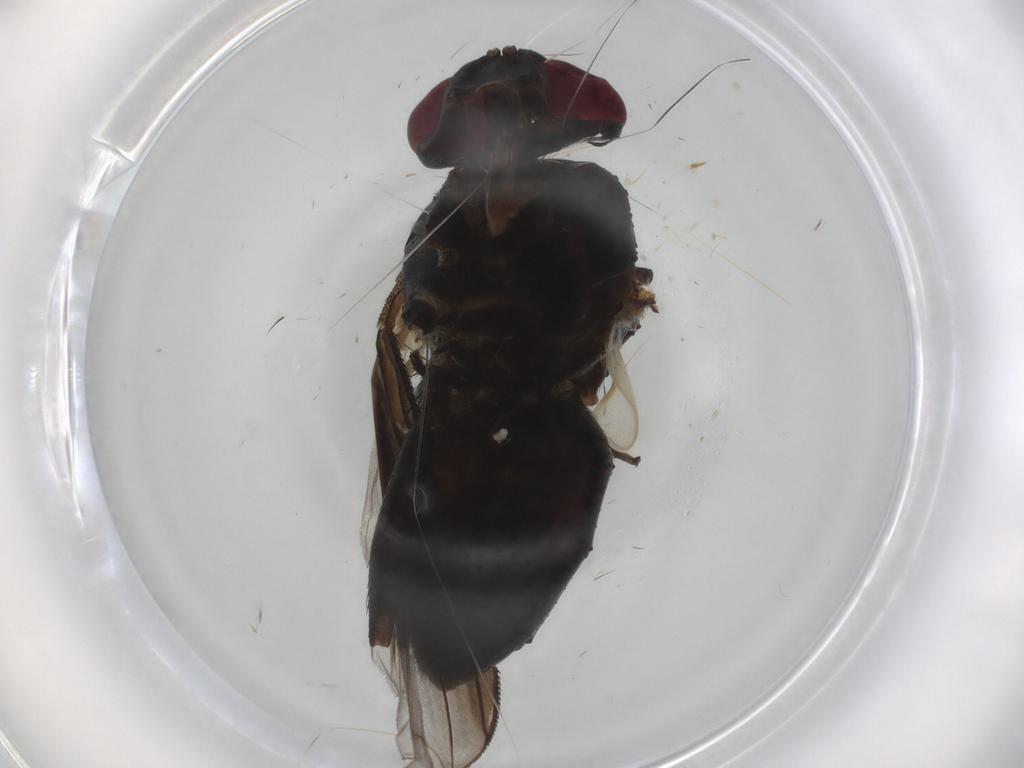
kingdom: Animalia
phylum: Arthropoda
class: Insecta
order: Diptera
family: Tachinidae
